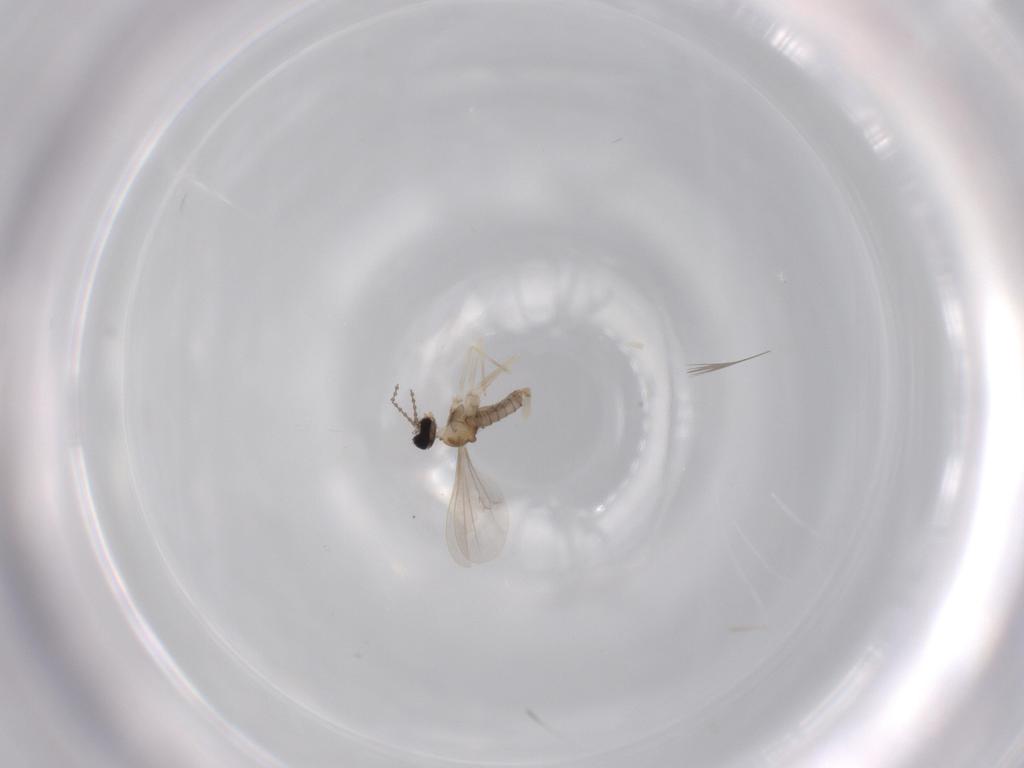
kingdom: Animalia
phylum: Arthropoda
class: Insecta
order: Diptera
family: Cecidomyiidae
